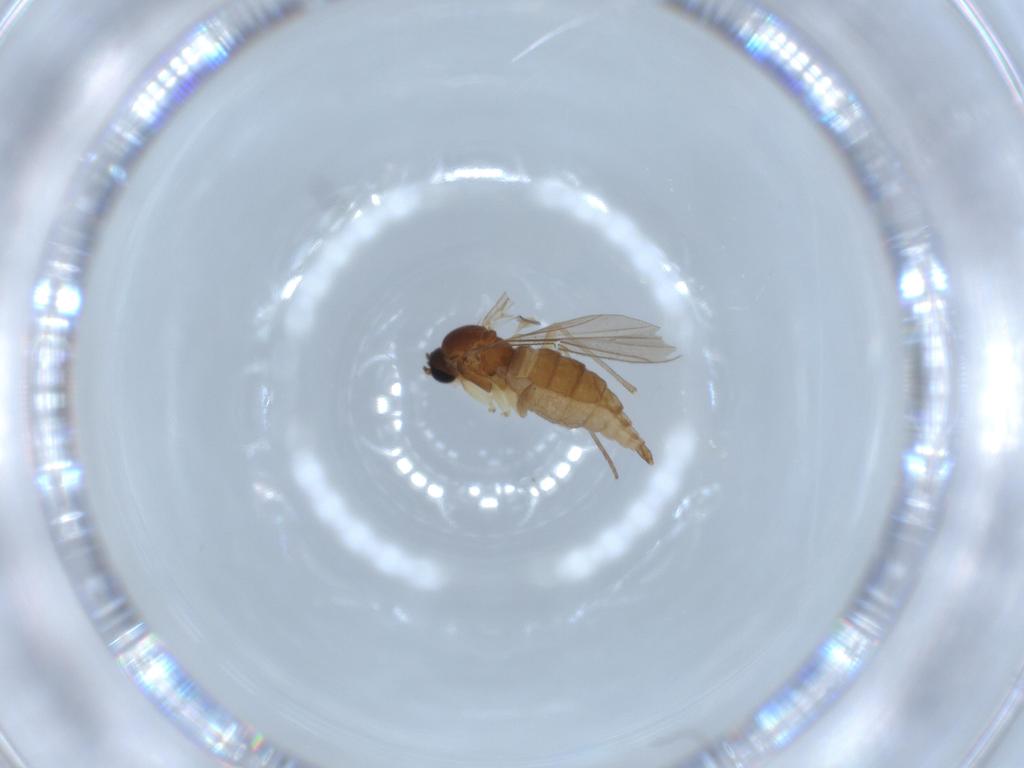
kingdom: Animalia
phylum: Arthropoda
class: Insecta
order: Diptera
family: Sciaridae
